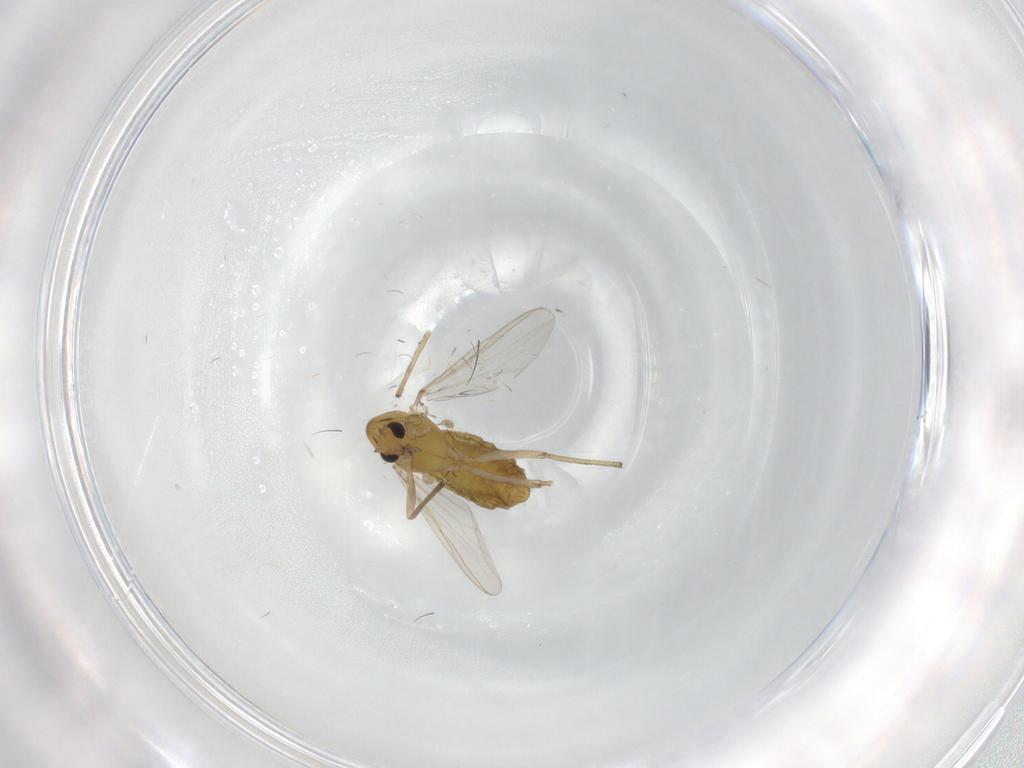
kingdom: Animalia
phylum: Arthropoda
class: Insecta
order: Diptera
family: Chironomidae
